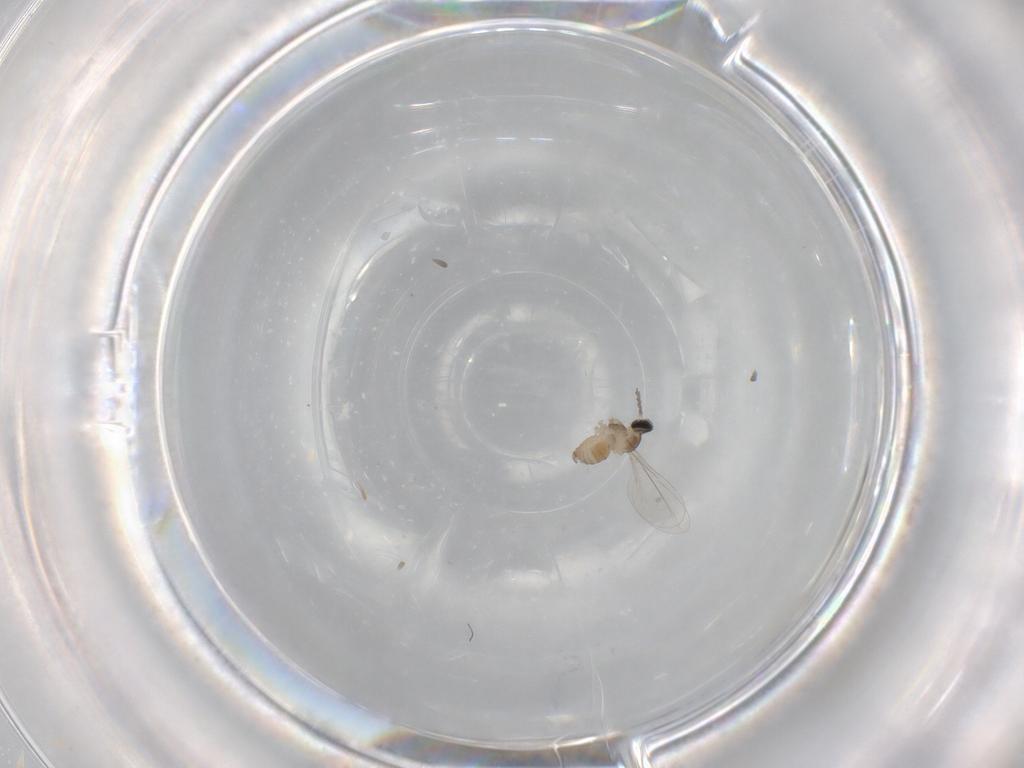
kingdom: Animalia
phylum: Arthropoda
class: Insecta
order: Diptera
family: Cecidomyiidae
